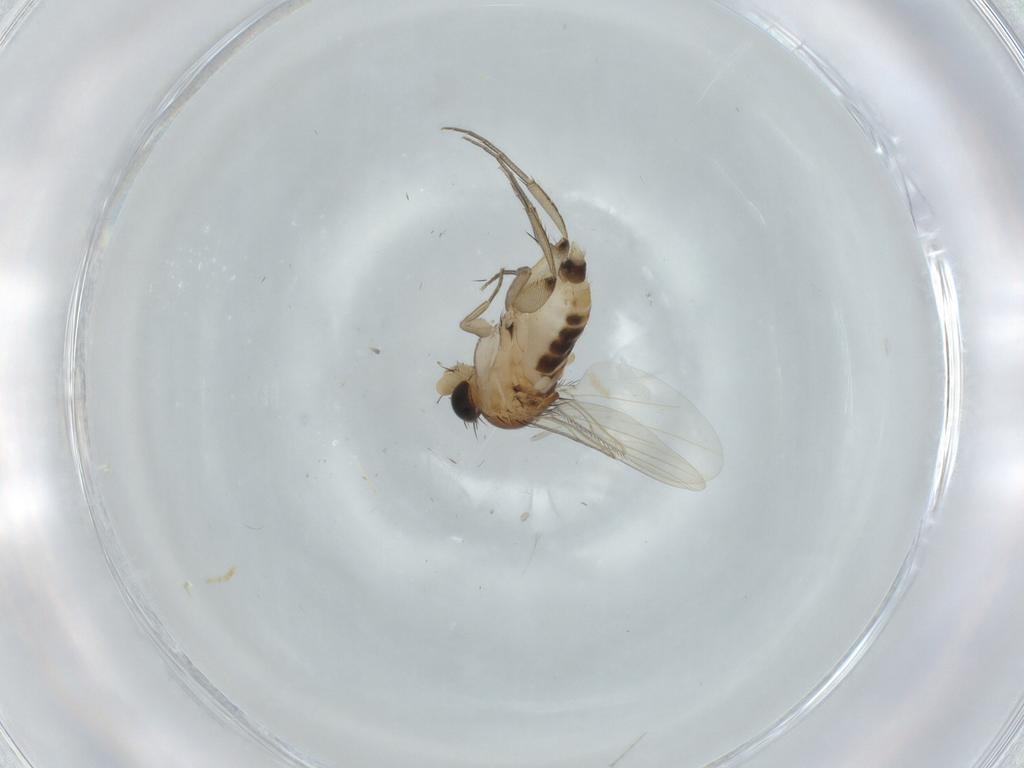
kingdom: Animalia
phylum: Arthropoda
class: Insecta
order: Diptera
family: Phoridae
